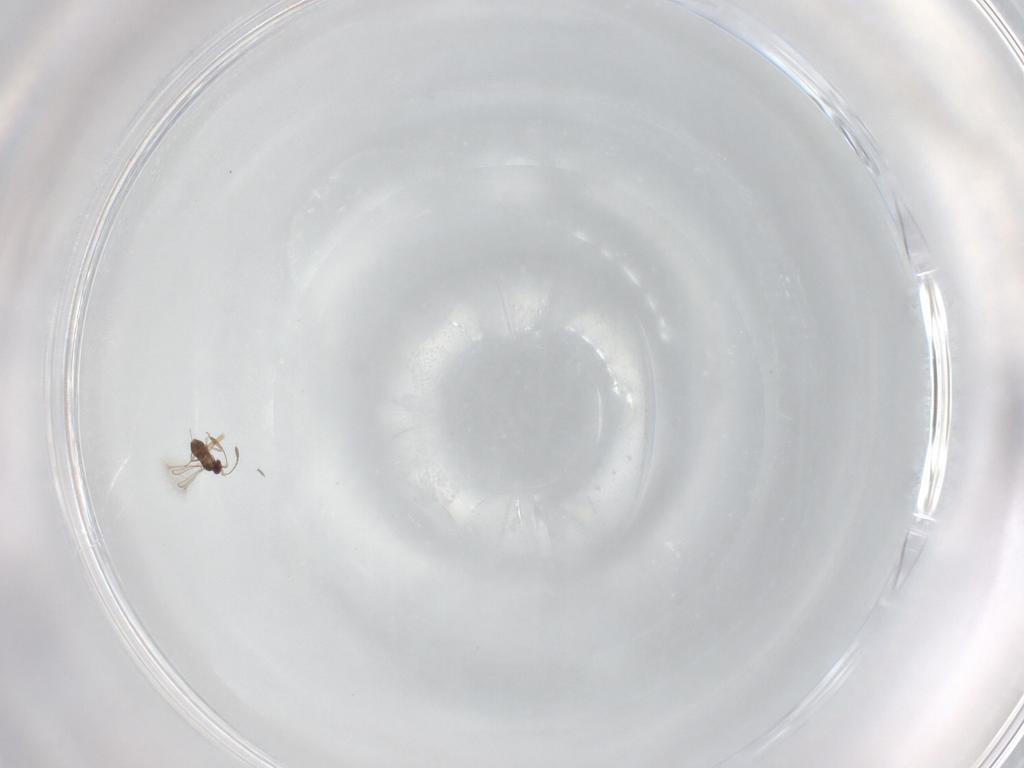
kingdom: Animalia
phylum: Arthropoda
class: Insecta
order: Hymenoptera
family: Scelionidae
